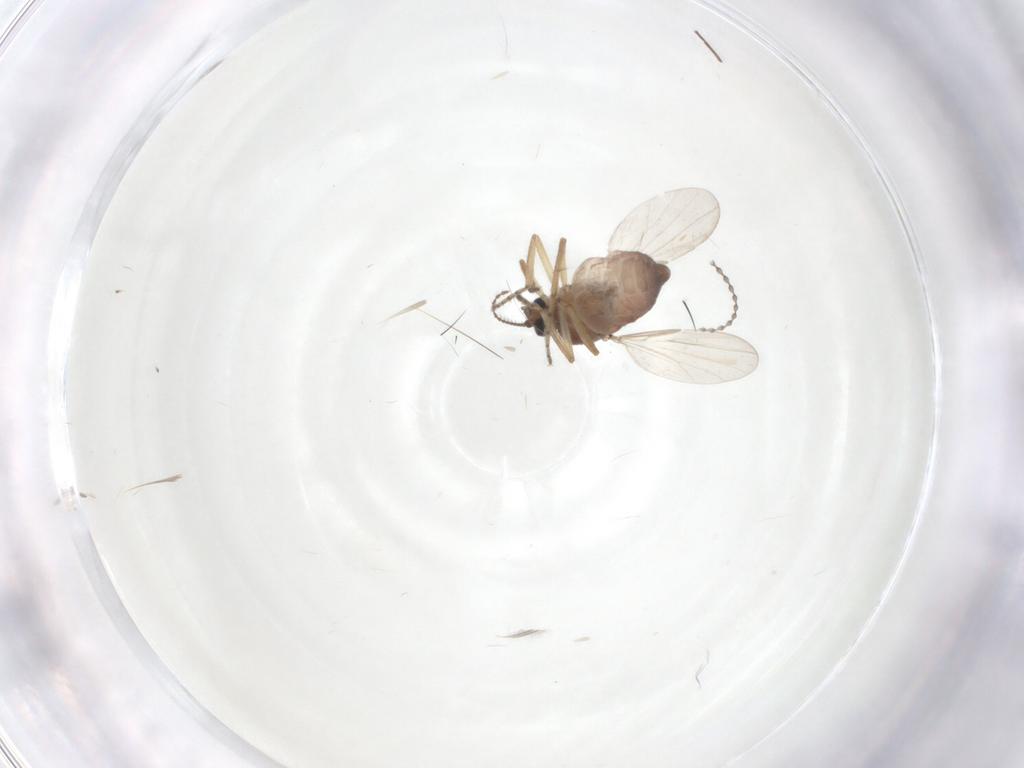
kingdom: Animalia
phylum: Arthropoda
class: Insecta
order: Diptera
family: Ceratopogonidae
